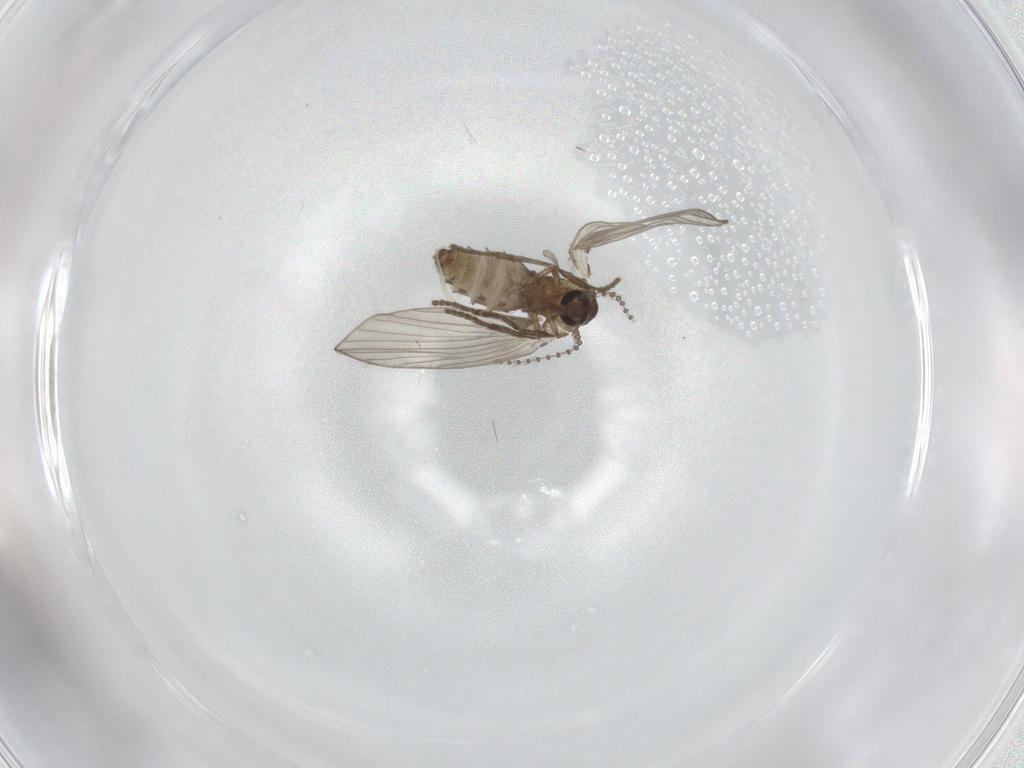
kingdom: Animalia
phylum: Arthropoda
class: Insecta
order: Diptera
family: Psychodidae
